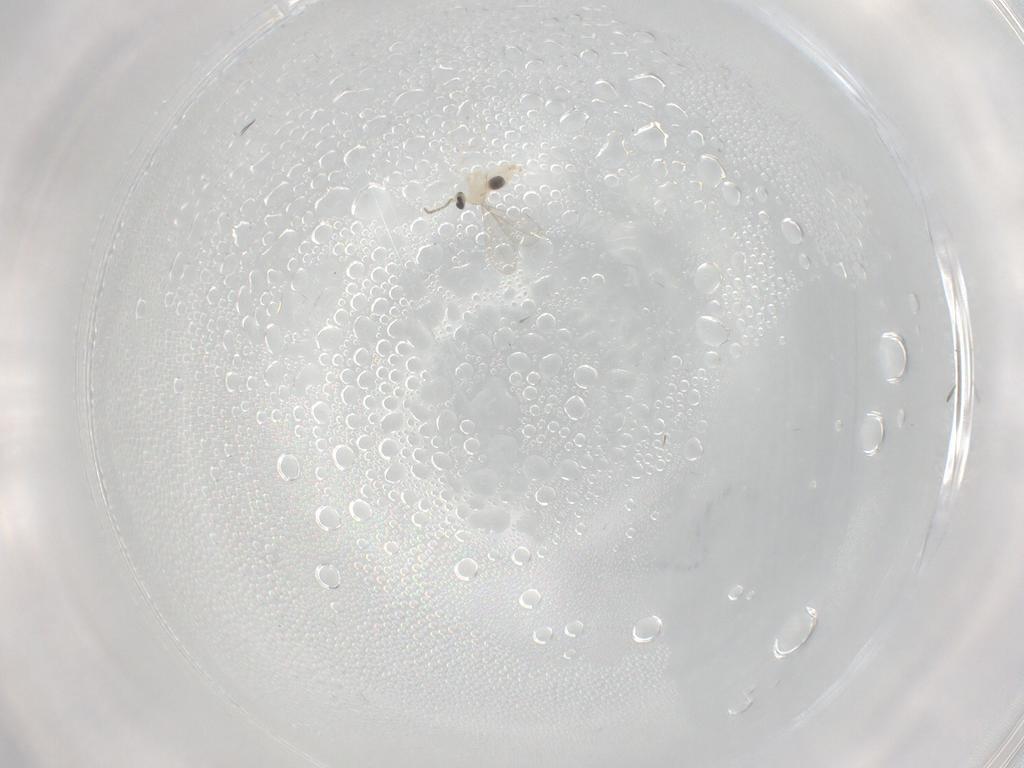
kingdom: Animalia
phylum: Arthropoda
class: Insecta
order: Diptera
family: Cecidomyiidae
